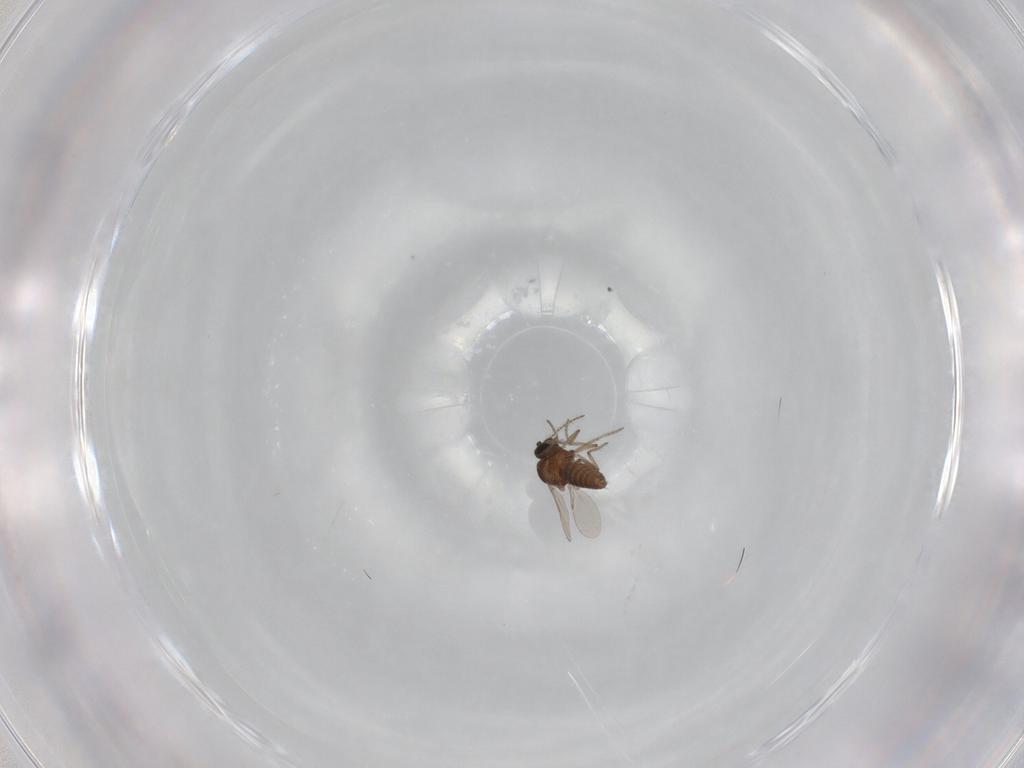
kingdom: Animalia
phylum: Arthropoda
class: Insecta
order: Diptera
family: Ceratopogonidae
